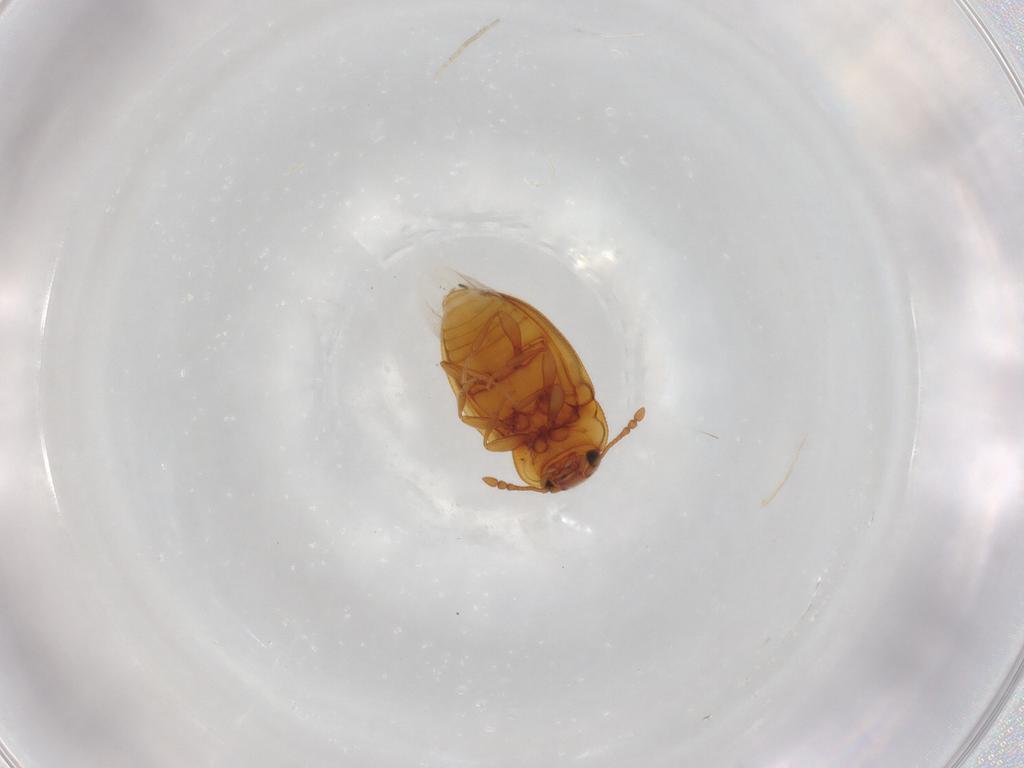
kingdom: Animalia
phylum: Arthropoda
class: Insecta
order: Coleoptera
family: Anamorphidae
